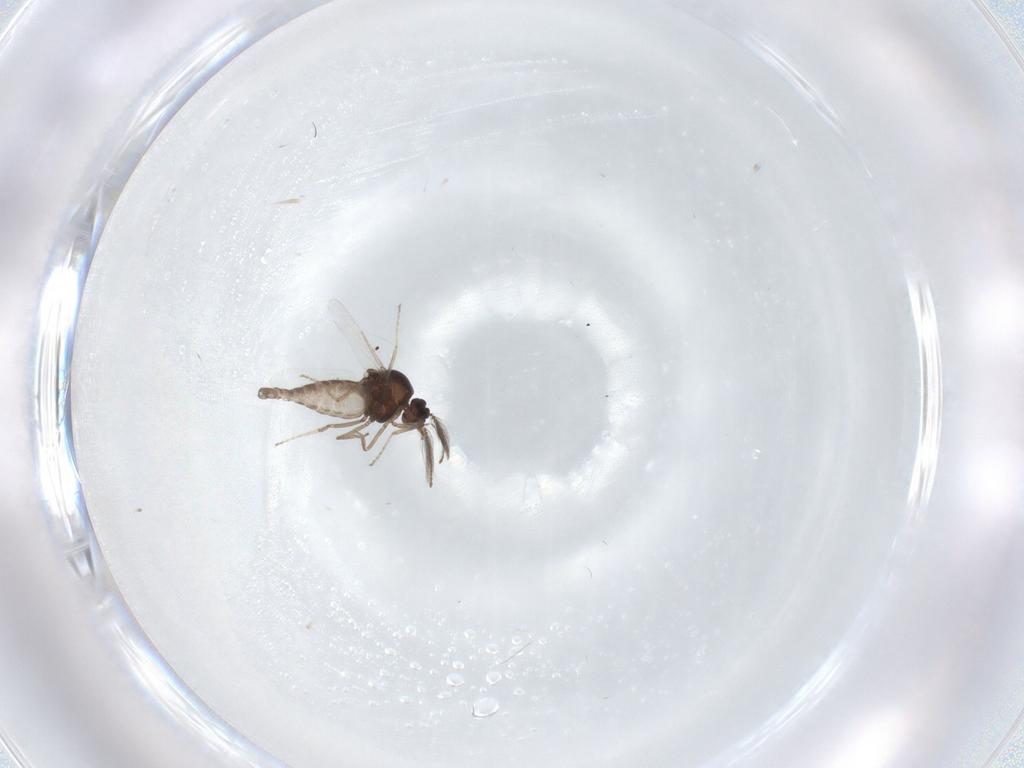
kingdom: Animalia
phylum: Arthropoda
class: Insecta
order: Diptera
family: Ceratopogonidae
